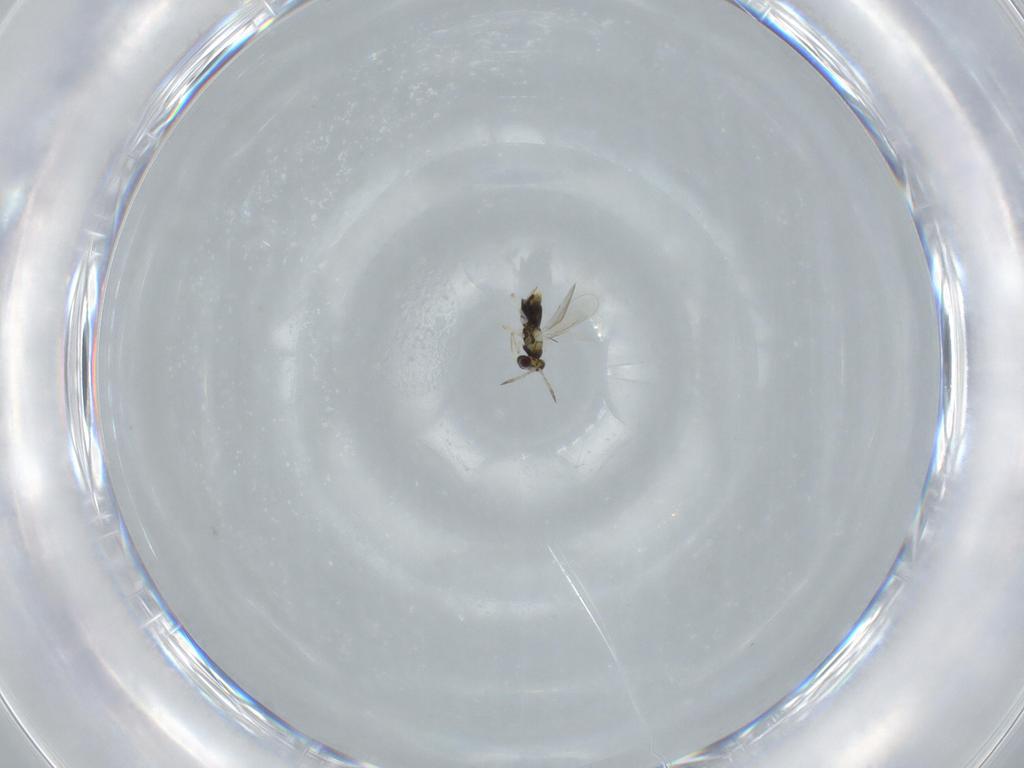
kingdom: Animalia
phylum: Arthropoda
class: Insecta
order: Hymenoptera
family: Aphelinidae
